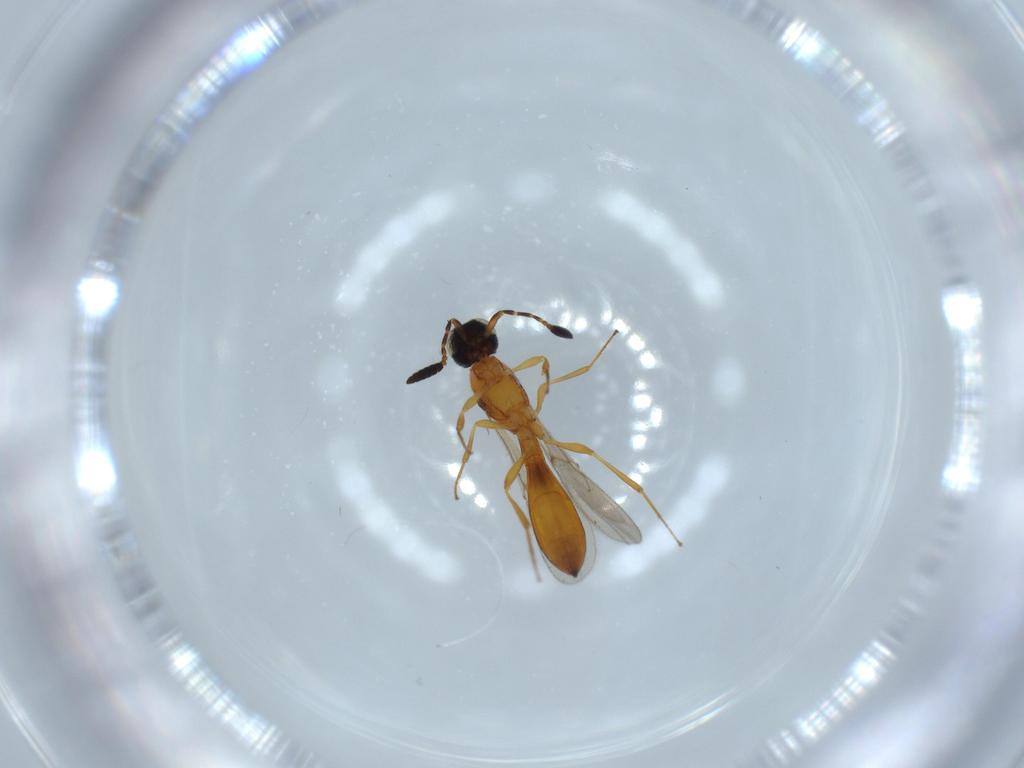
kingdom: Animalia
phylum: Arthropoda
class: Insecta
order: Hymenoptera
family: Scelionidae
